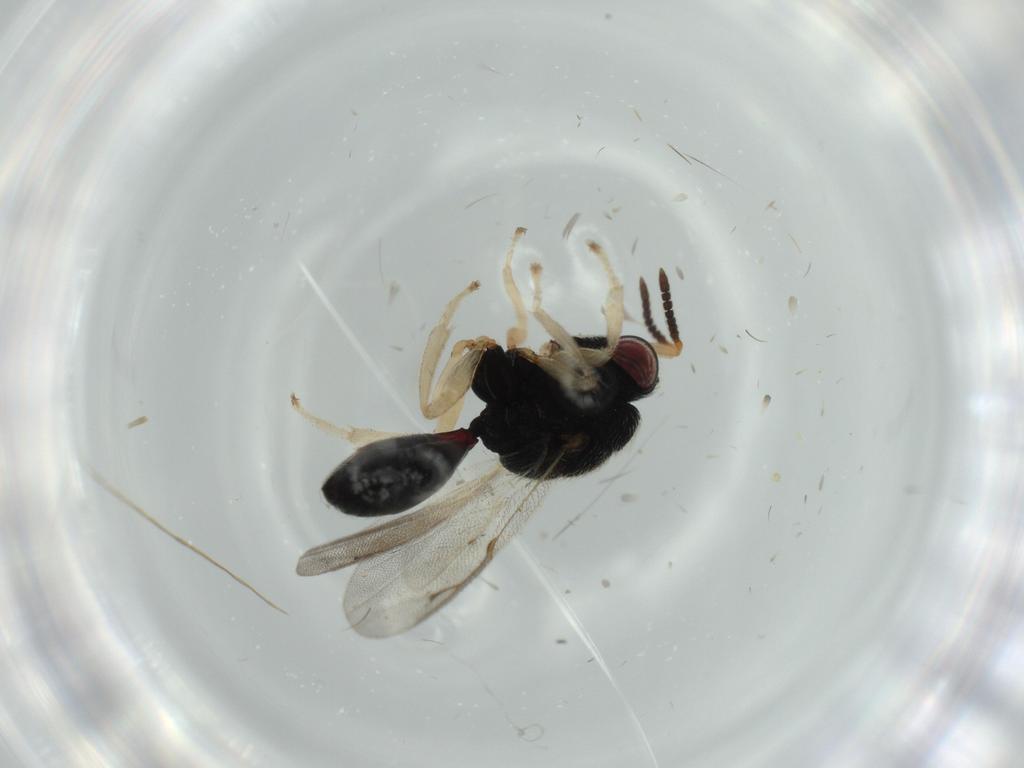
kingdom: Animalia
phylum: Arthropoda
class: Insecta
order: Hymenoptera
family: Eurytomidae
